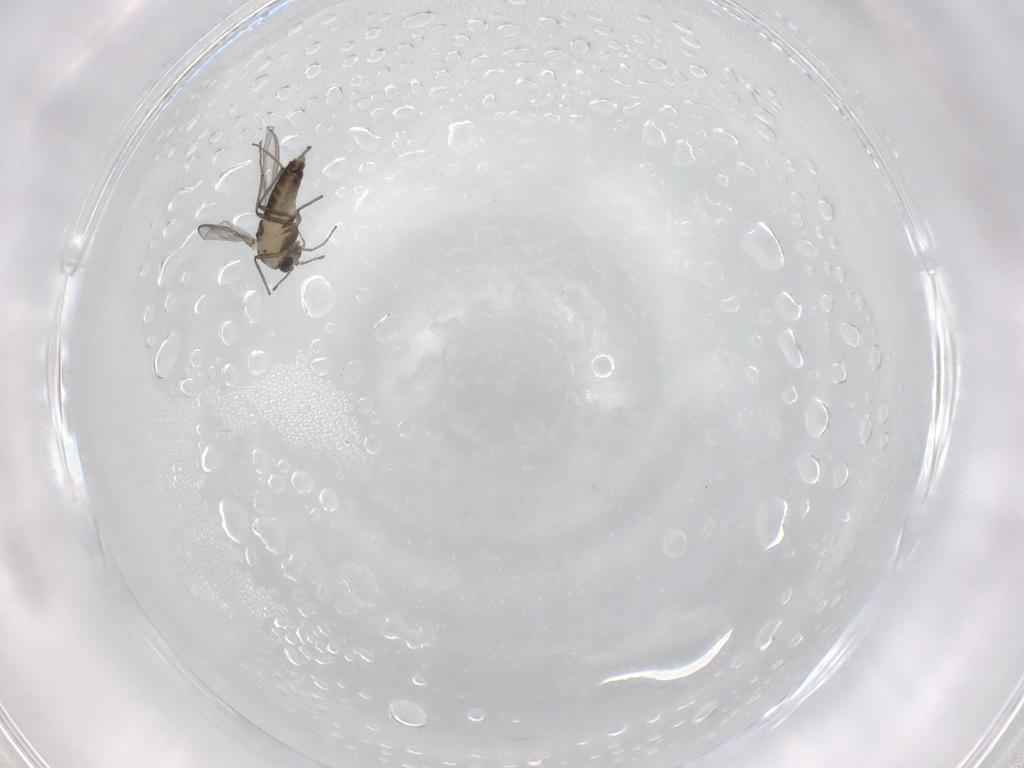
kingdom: Animalia
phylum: Arthropoda
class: Insecta
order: Diptera
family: Chironomidae
